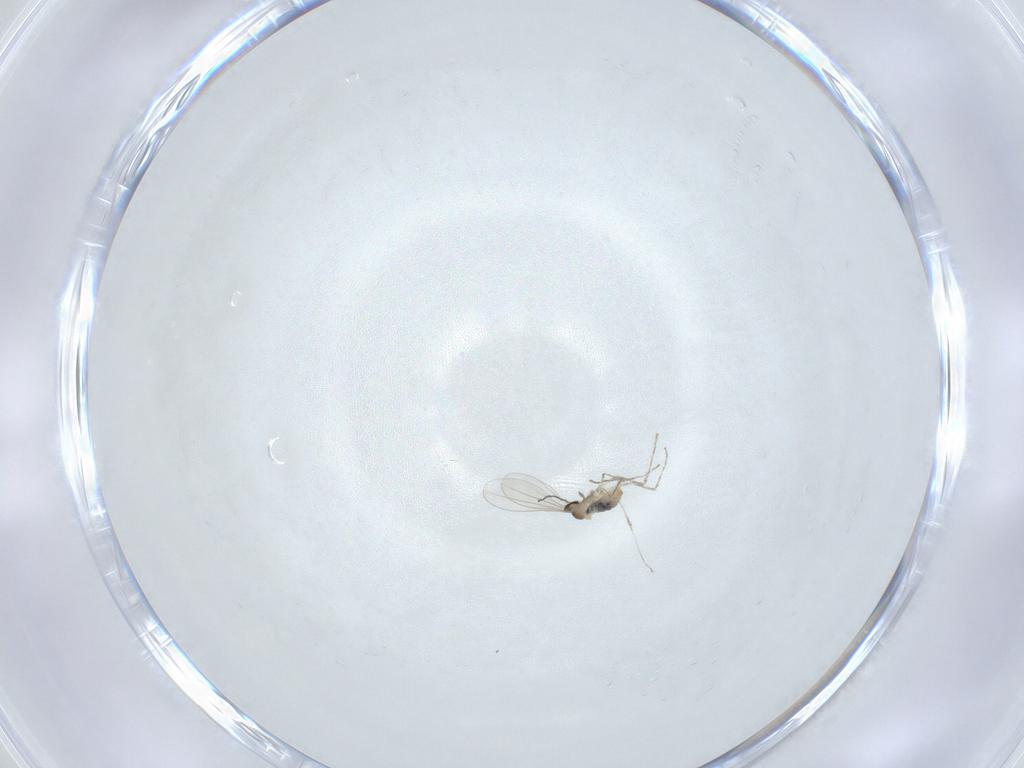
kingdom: Animalia
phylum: Arthropoda
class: Insecta
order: Diptera
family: Cecidomyiidae
